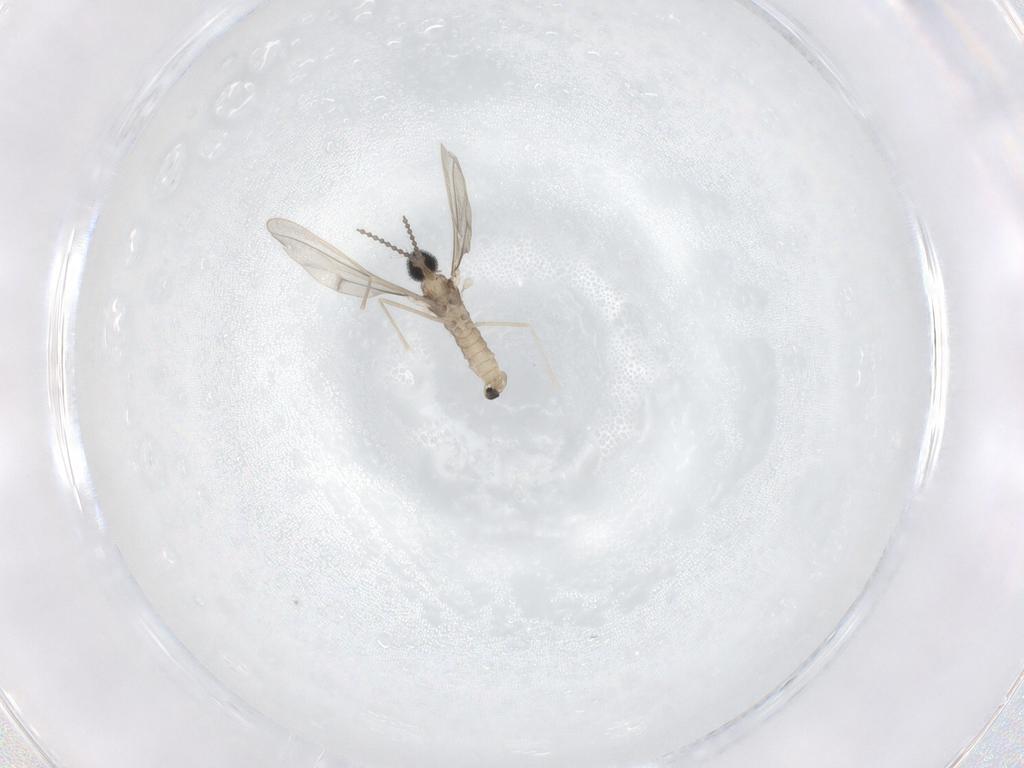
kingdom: Animalia
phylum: Arthropoda
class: Insecta
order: Diptera
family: Cecidomyiidae
